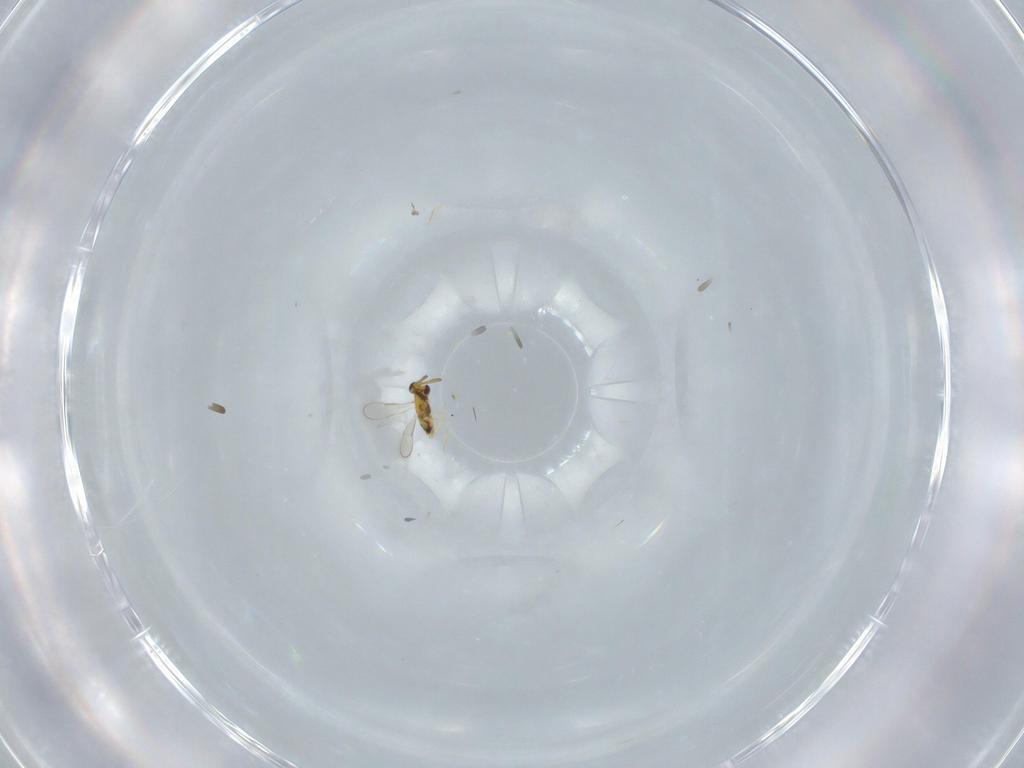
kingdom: Animalia
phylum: Arthropoda
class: Insecta
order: Hymenoptera
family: Aphelinidae
